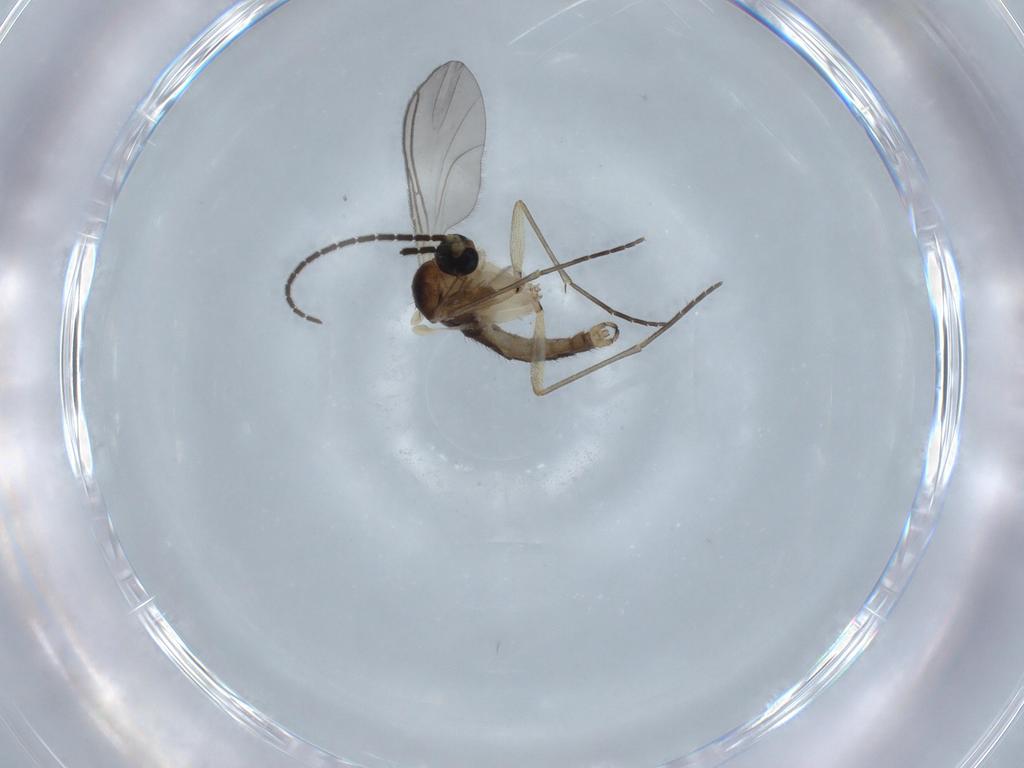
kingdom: Animalia
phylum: Arthropoda
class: Insecta
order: Diptera
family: Sciaridae
